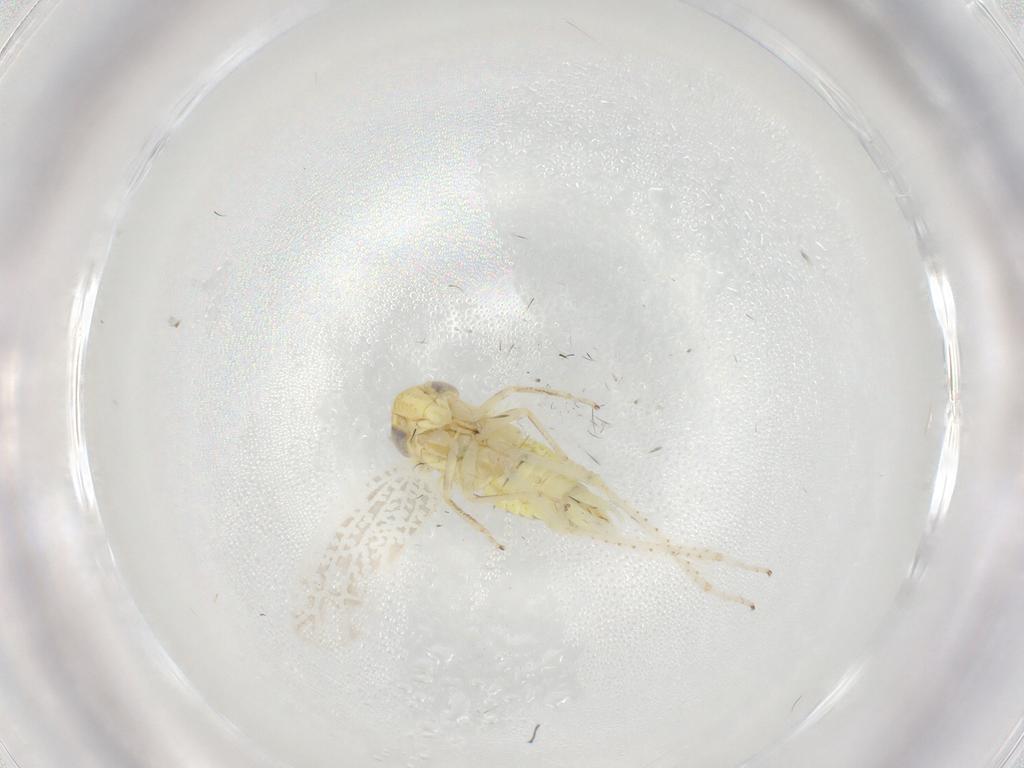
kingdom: Animalia
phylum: Arthropoda
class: Insecta
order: Hemiptera
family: Cicadellidae
